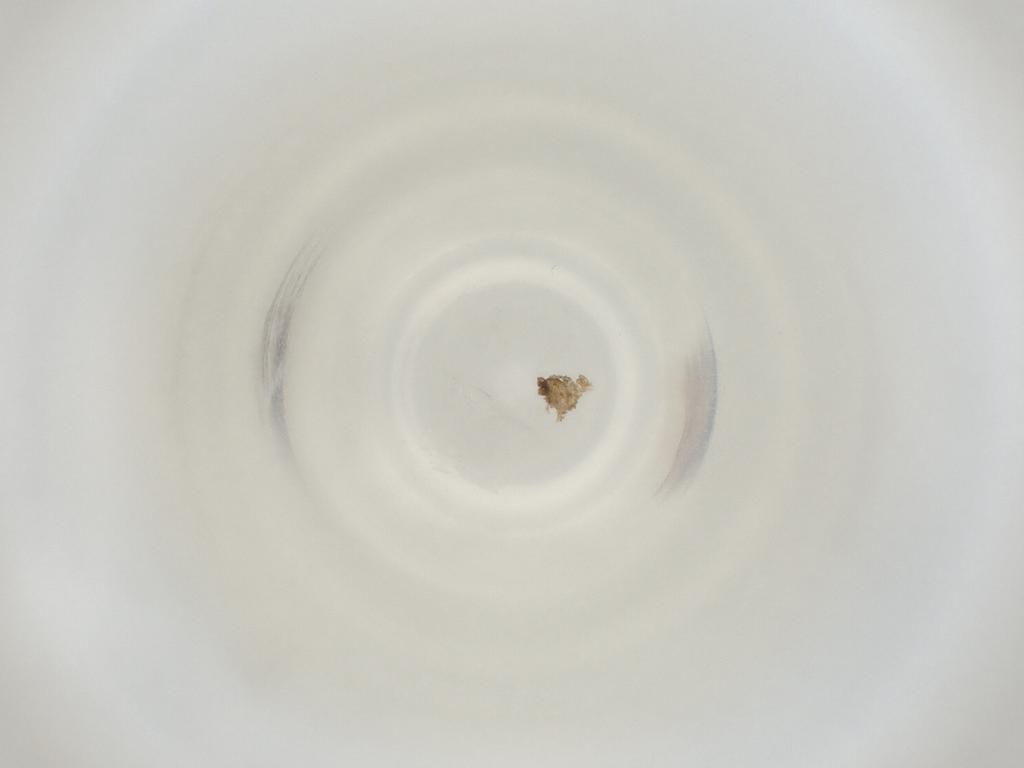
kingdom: Animalia
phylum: Arthropoda
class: Insecta
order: Diptera
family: Cecidomyiidae
